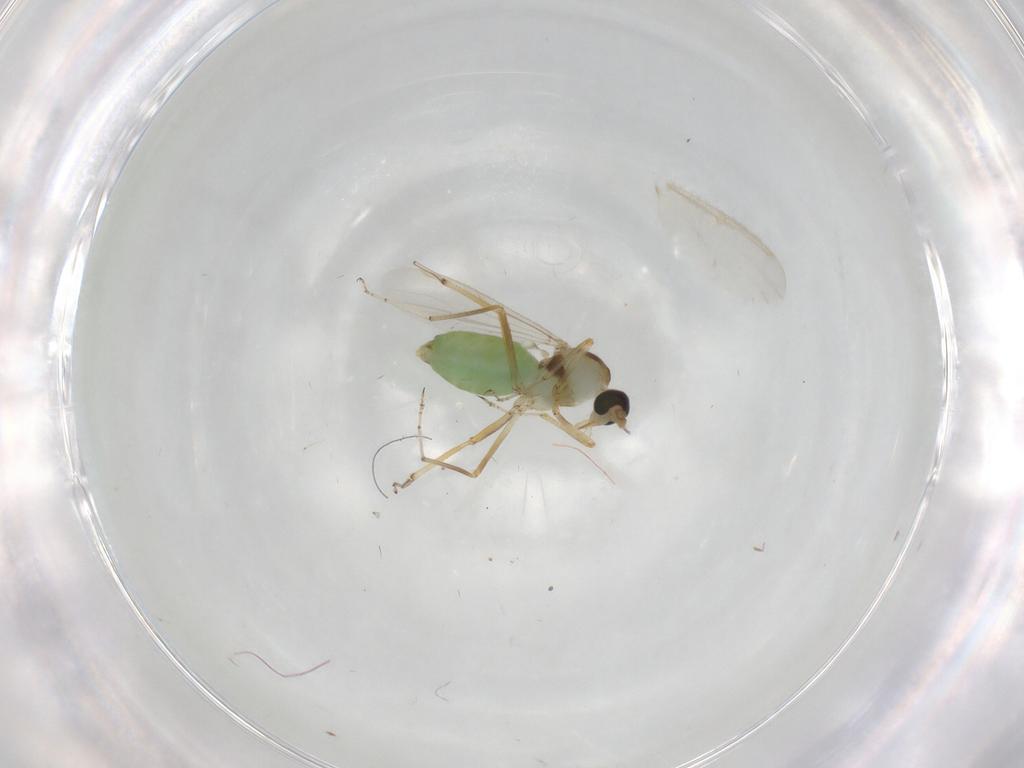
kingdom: Animalia
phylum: Arthropoda
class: Insecta
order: Diptera
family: Ceratopogonidae
